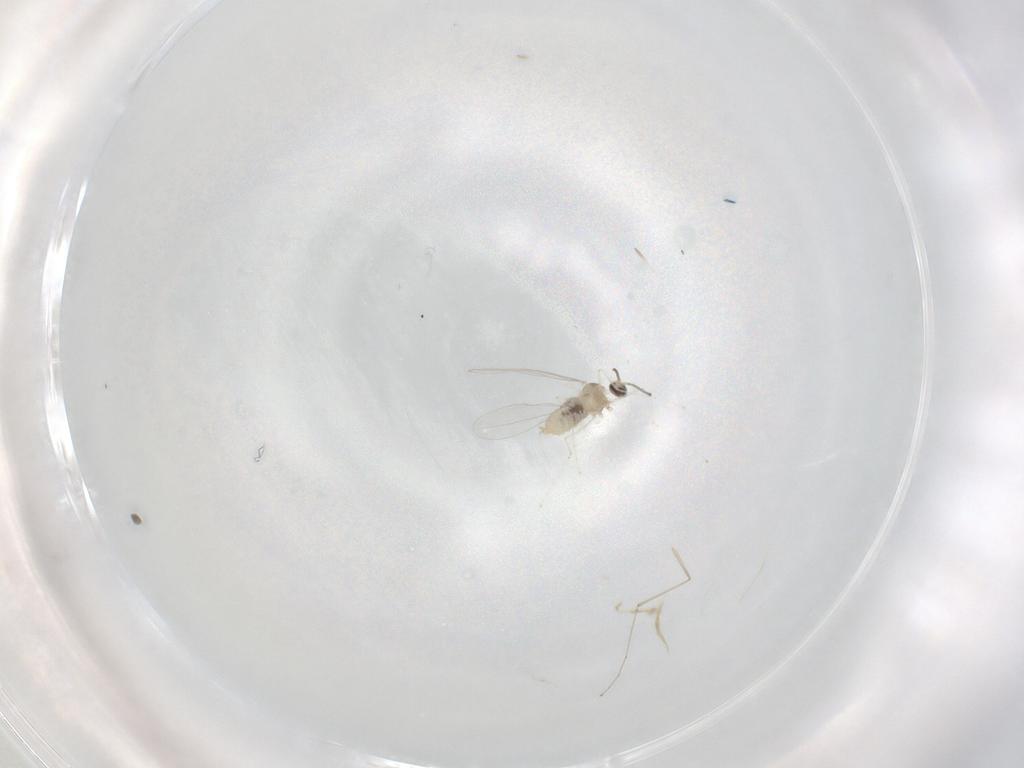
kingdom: Animalia
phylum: Arthropoda
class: Insecta
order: Diptera
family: Cecidomyiidae
